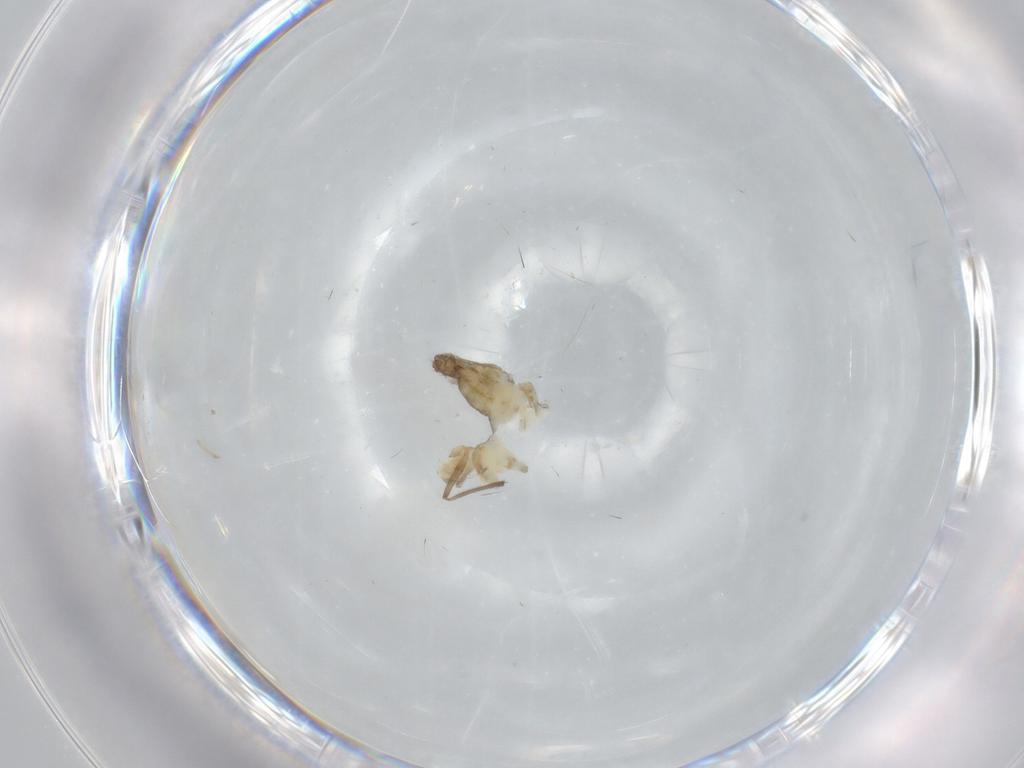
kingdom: Animalia
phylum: Arthropoda
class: Insecta
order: Diptera
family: Chironomidae
